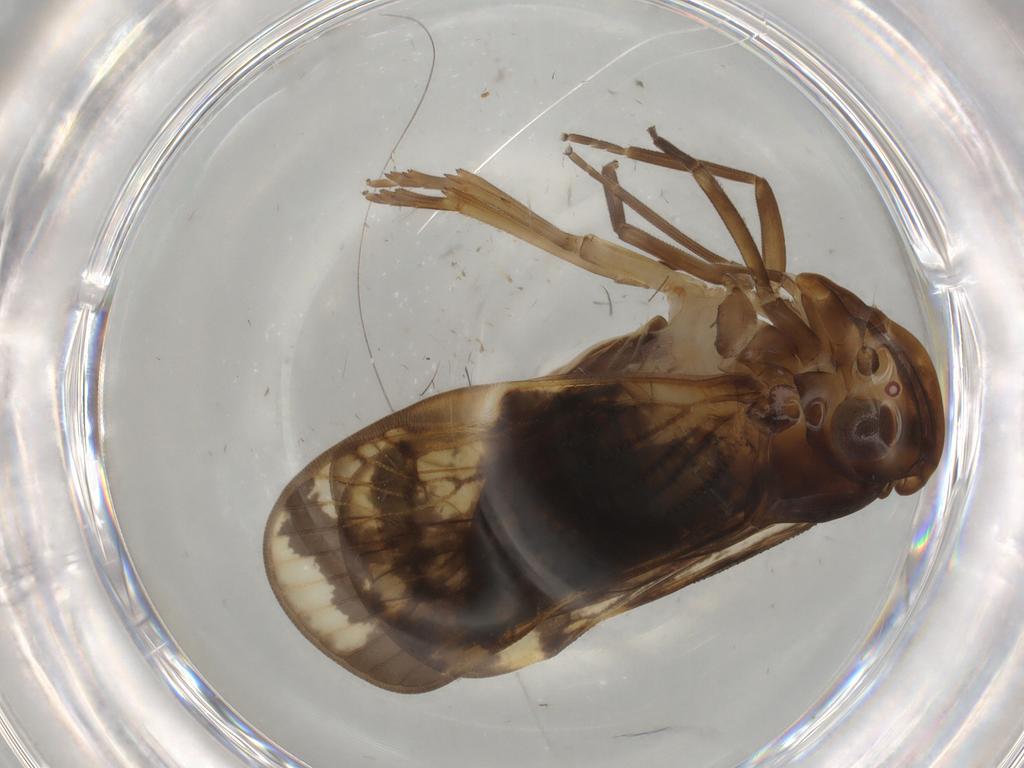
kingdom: Animalia
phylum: Arthropoda
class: Insecta
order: Hemiptera
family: Cixiidae
